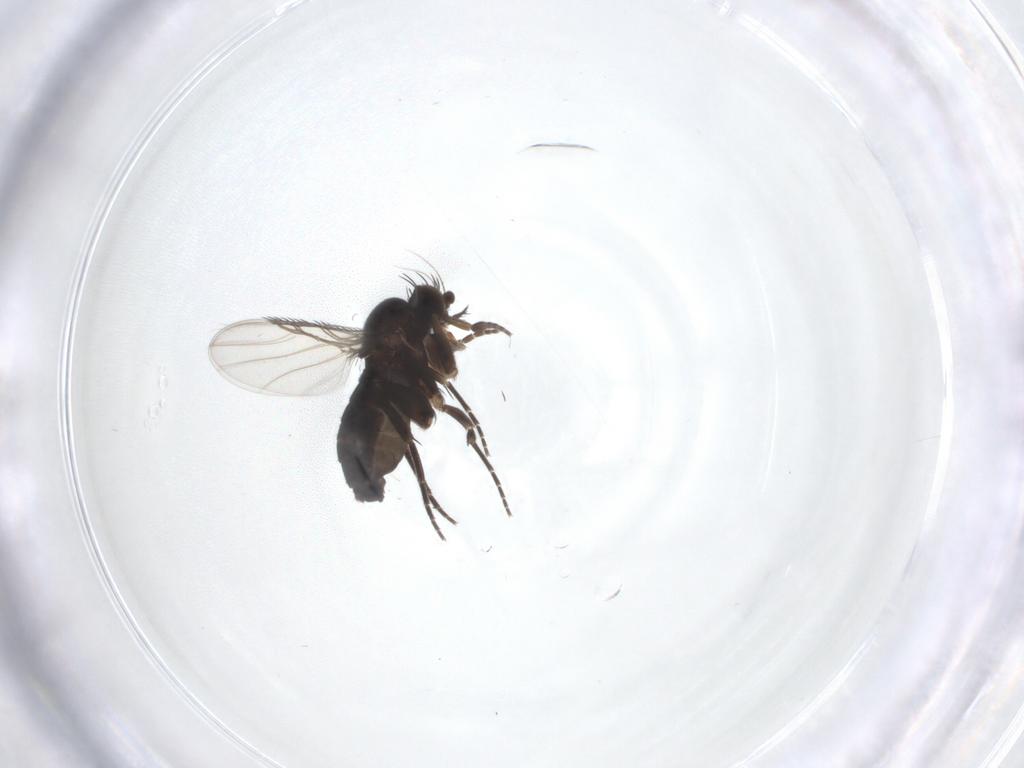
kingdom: Animalia
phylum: Arthropoda
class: Insecta
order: Diptera
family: Phoridae
